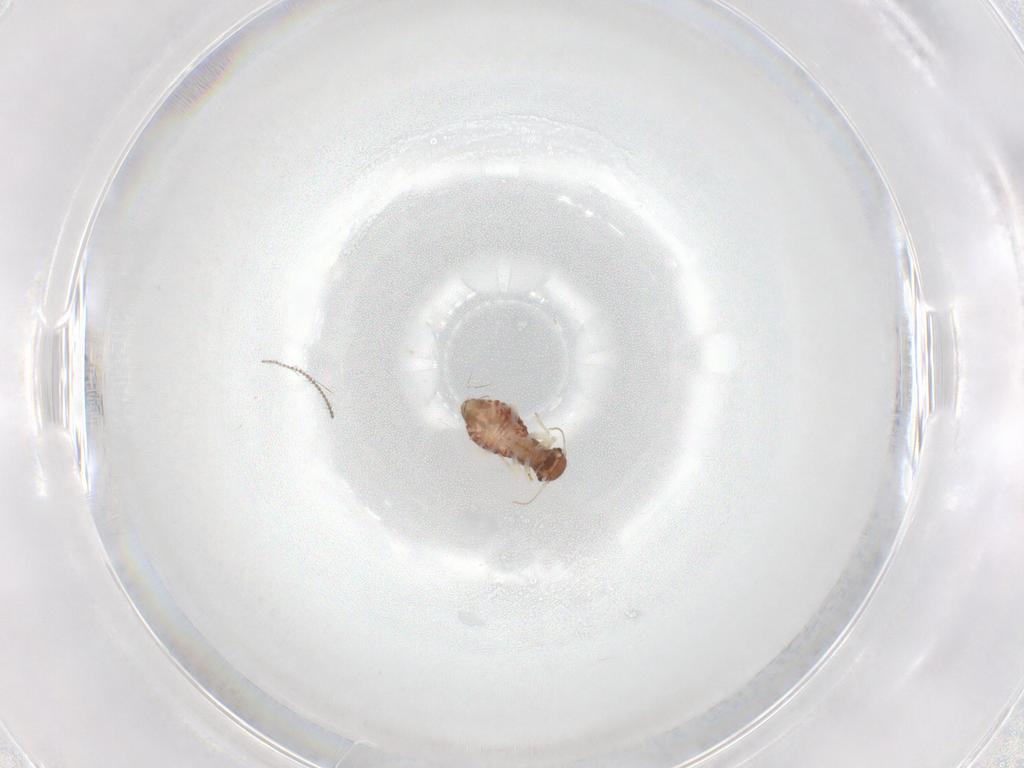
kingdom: Animalia
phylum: Arthropoda
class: Insecta
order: Psocodea
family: Archipsocidae
